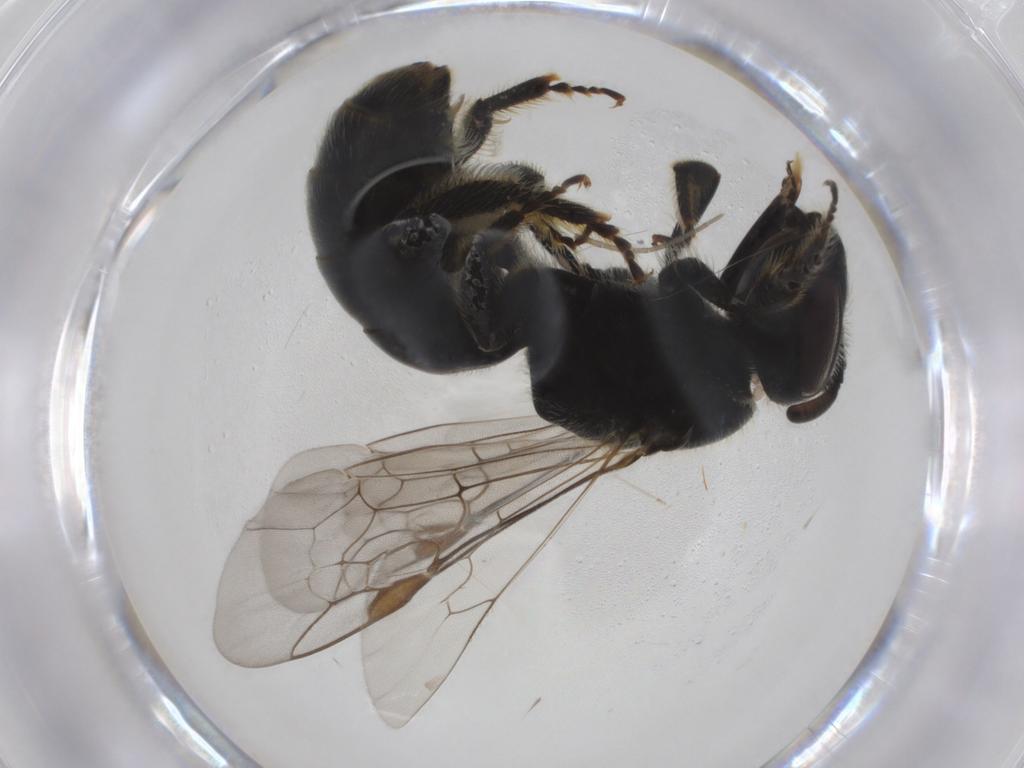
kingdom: Animalia
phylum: Arthropoda
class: Insecta
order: Hymenoptera
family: Halictidae
